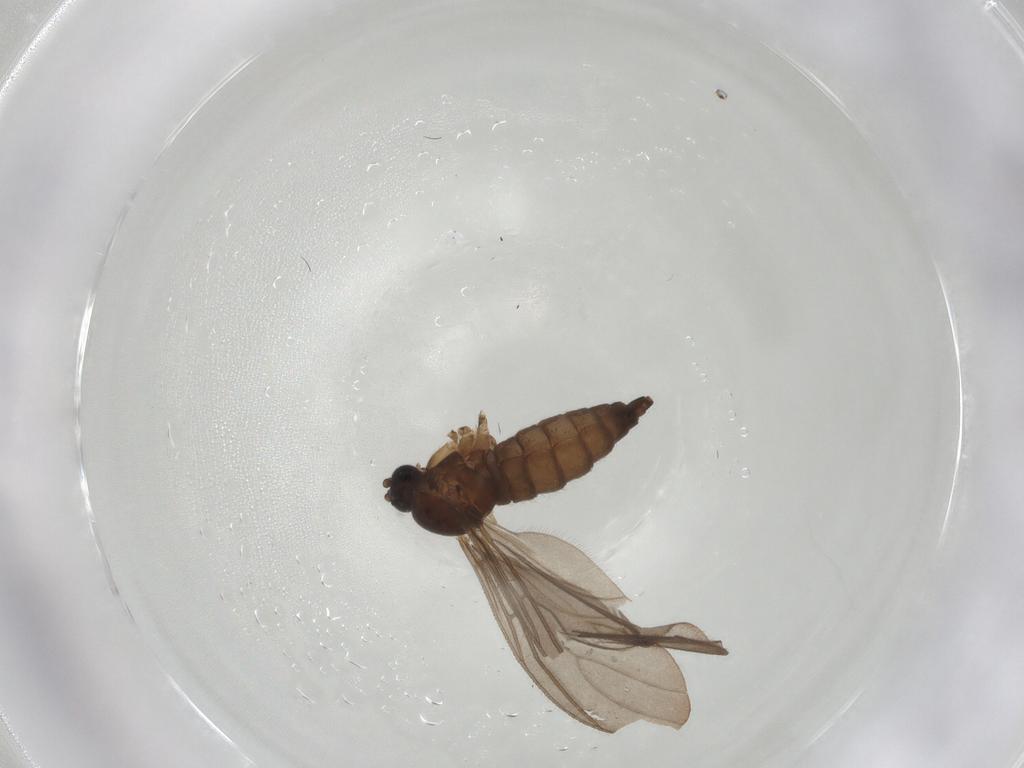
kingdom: Animalia
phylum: Arthropoda
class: Insecta
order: Diptera
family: Sciaridae
